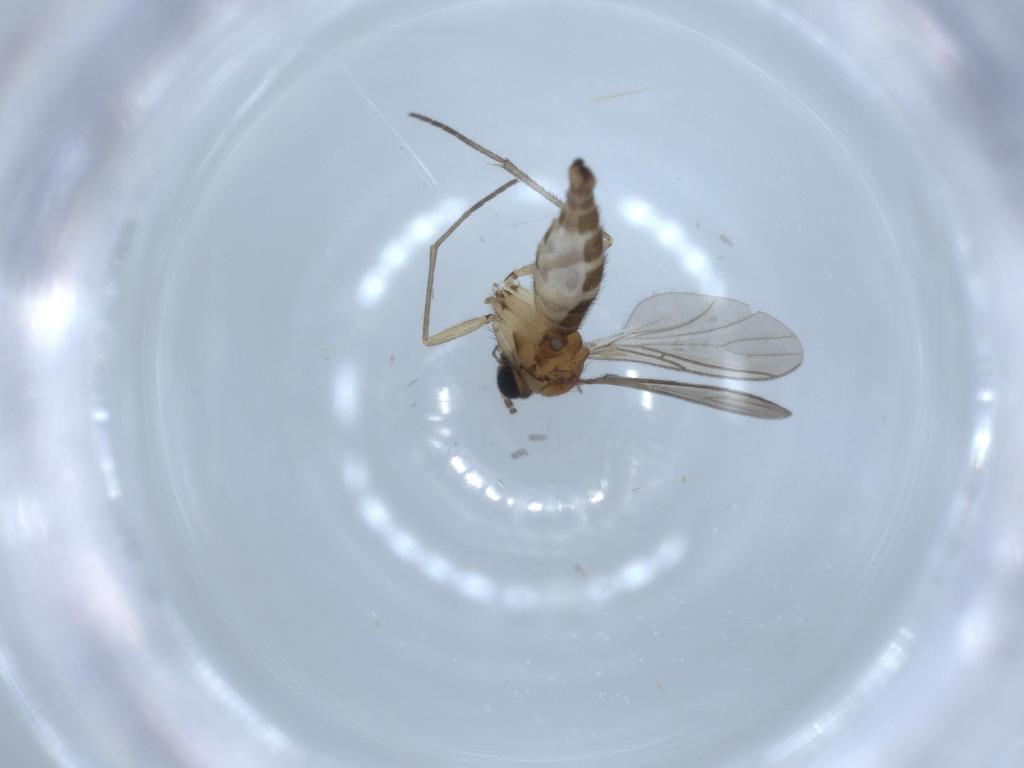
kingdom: Animalia
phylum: Arthropoda
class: Insecta
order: Diptera
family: Sciaridae
